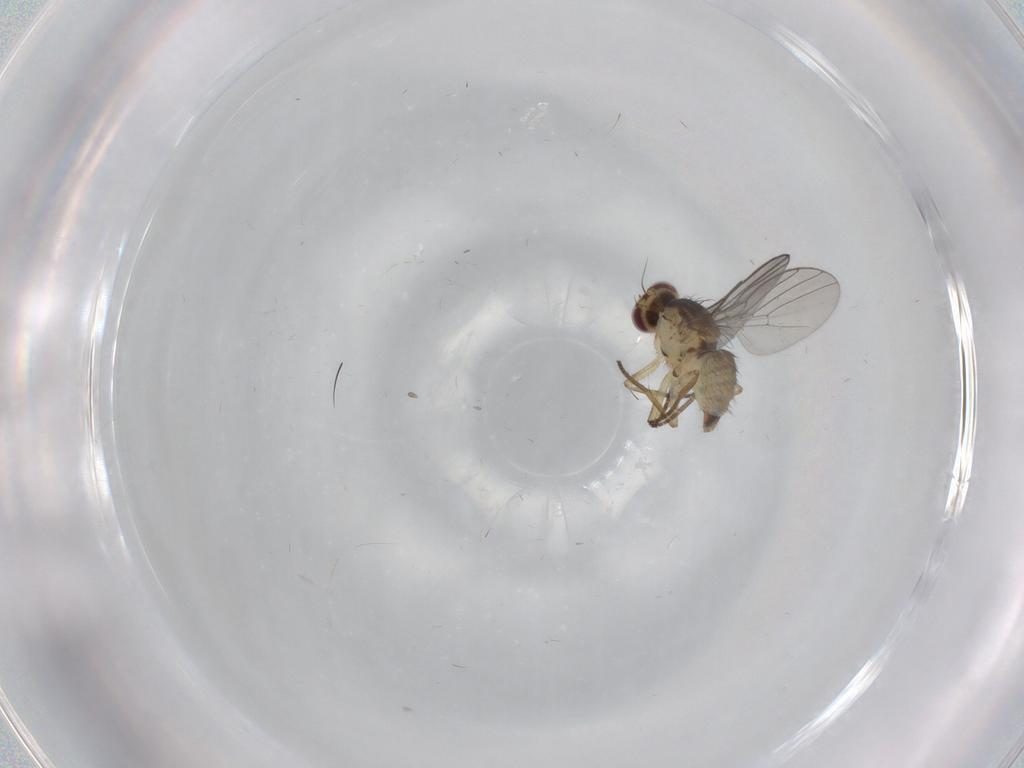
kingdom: Animalia
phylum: Arthropoda
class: Insecta
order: Diptera
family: Agromyzidae
